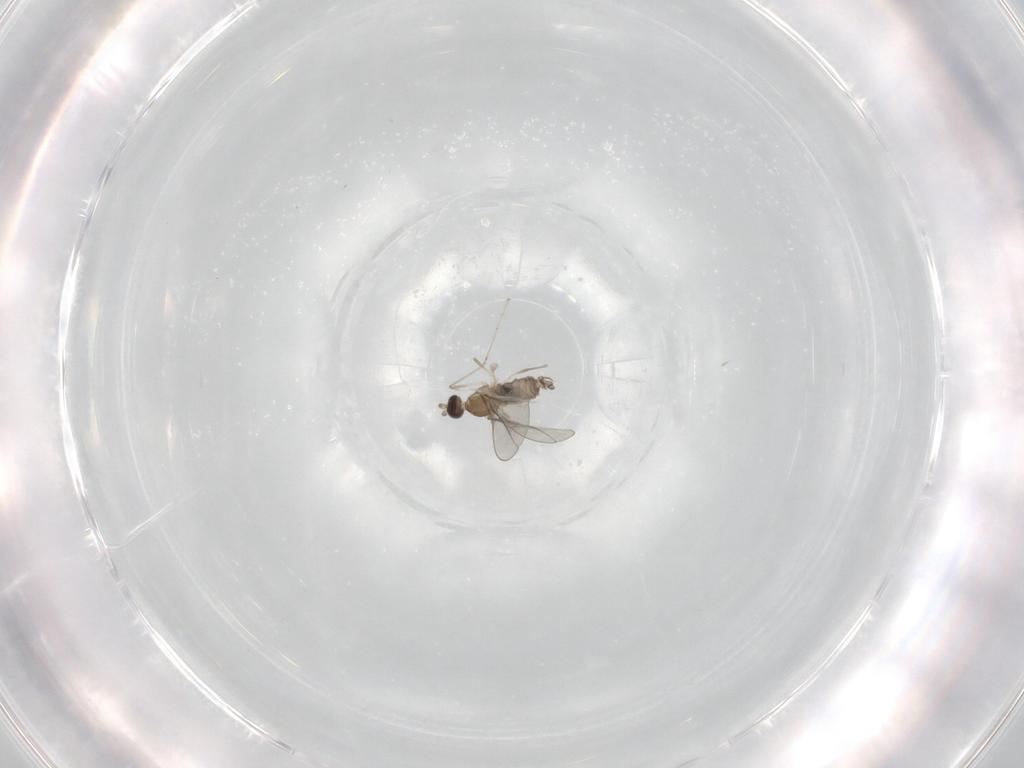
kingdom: Animalia
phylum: Arthropoda
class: Insecta
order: Diptera
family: Cecidomyiidae
